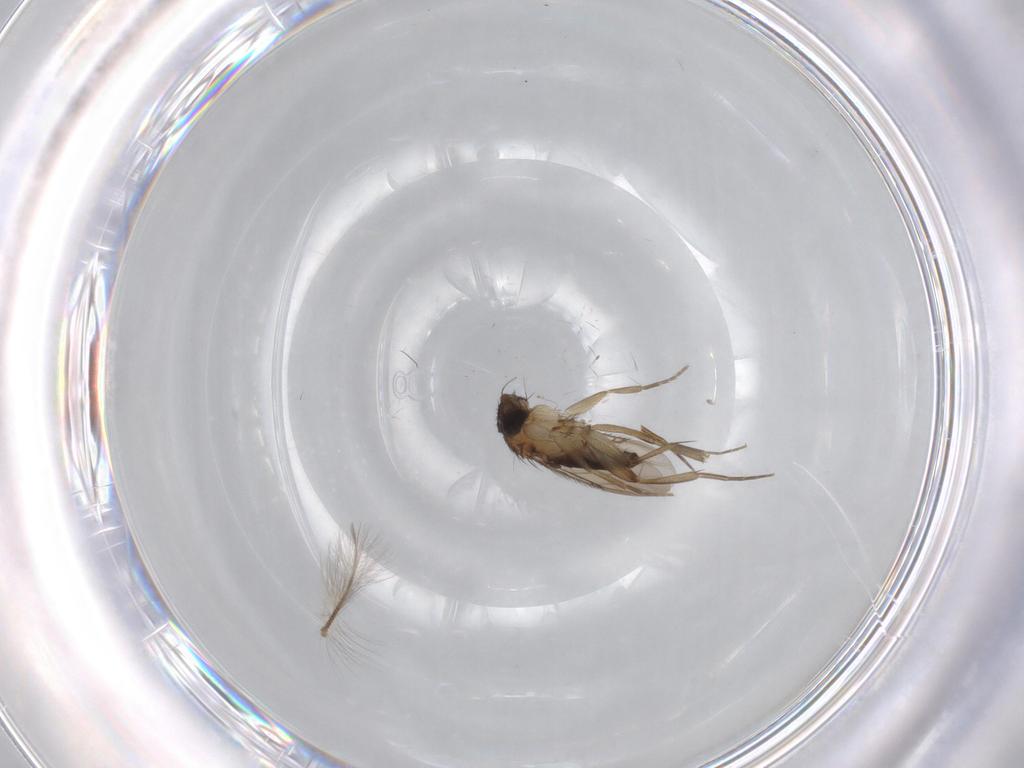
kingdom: Animalia
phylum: Arthropoda
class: Insecta
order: Diptera
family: Phoridae
